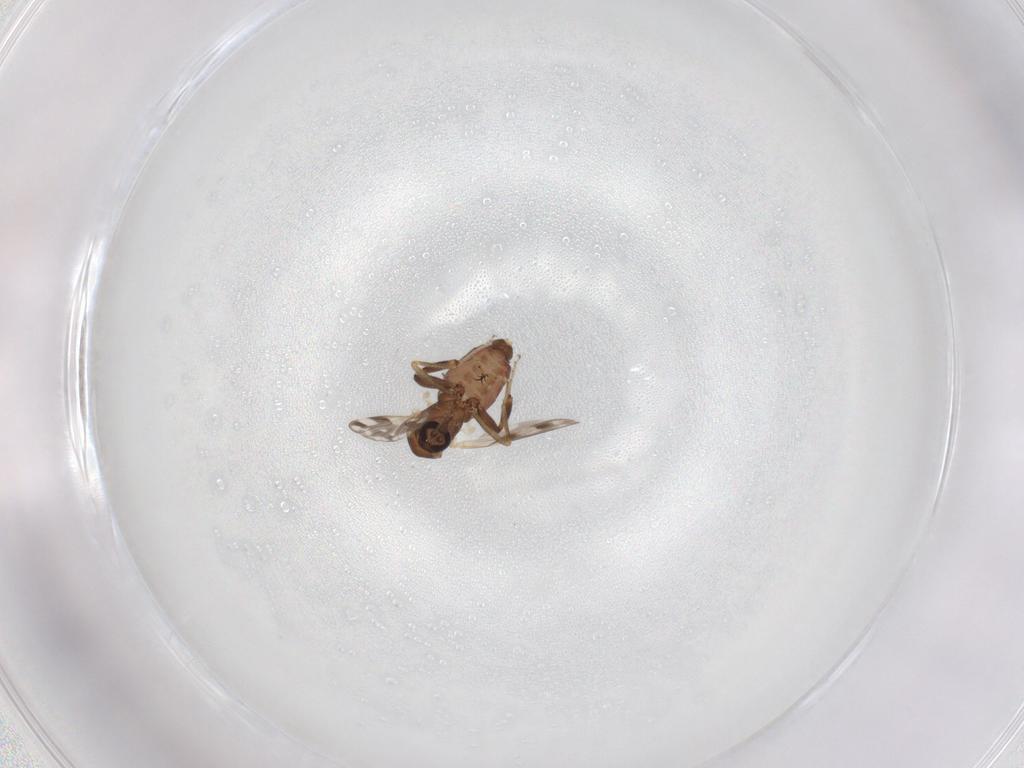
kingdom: Animalia
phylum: Arthropoda
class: Insecta
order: Diptera
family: Ceratopogonidae
